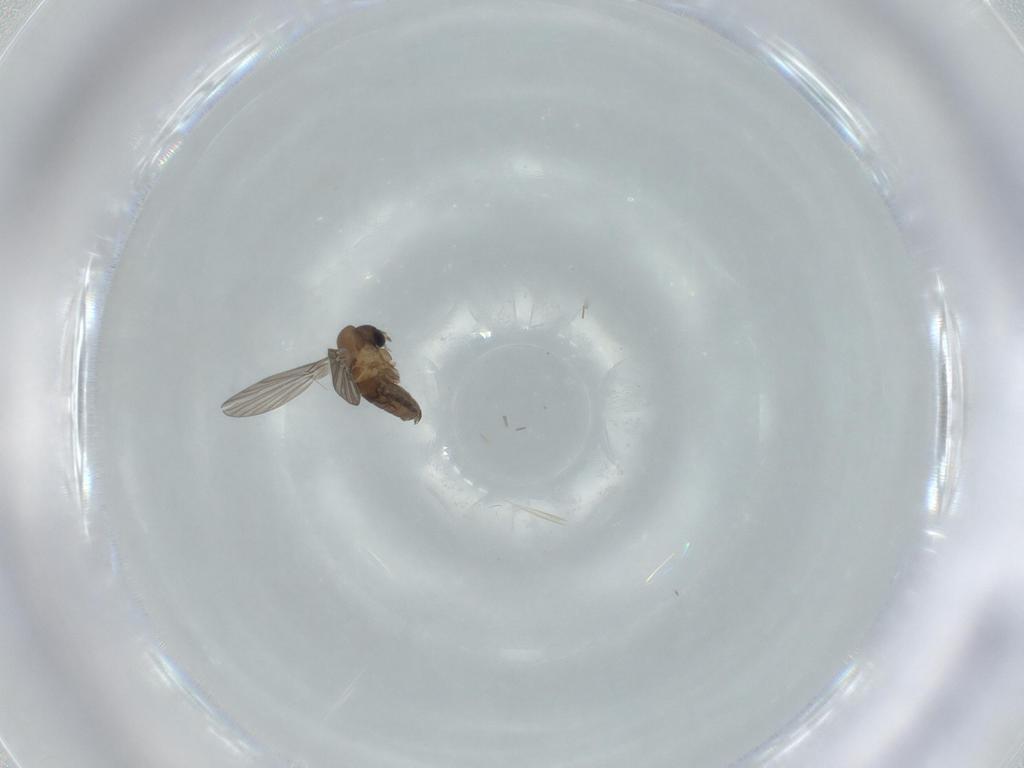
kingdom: Animalia
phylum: Arthropoda
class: Insecta
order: Diptera
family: Psychodidae
